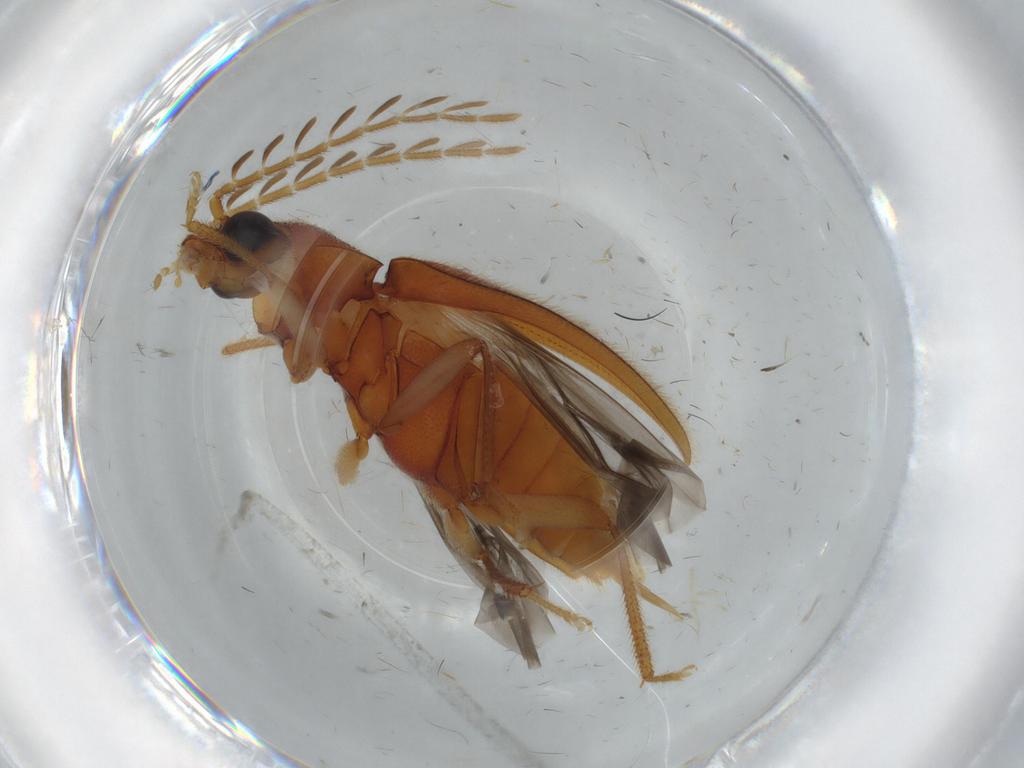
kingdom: Animalia
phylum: Arthropoda
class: Insecta
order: Coleoptera
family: Ptilodactylidae
